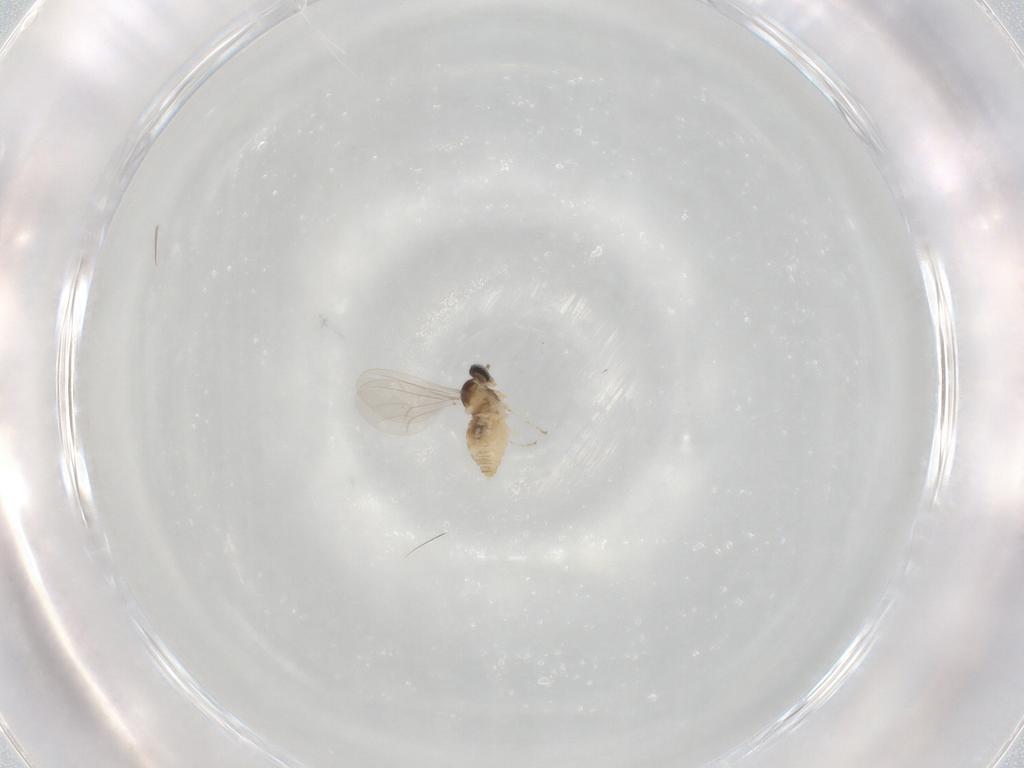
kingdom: Animalia
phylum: Arthropoda
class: Insecta
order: Diptera
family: Cecidomyiidae
